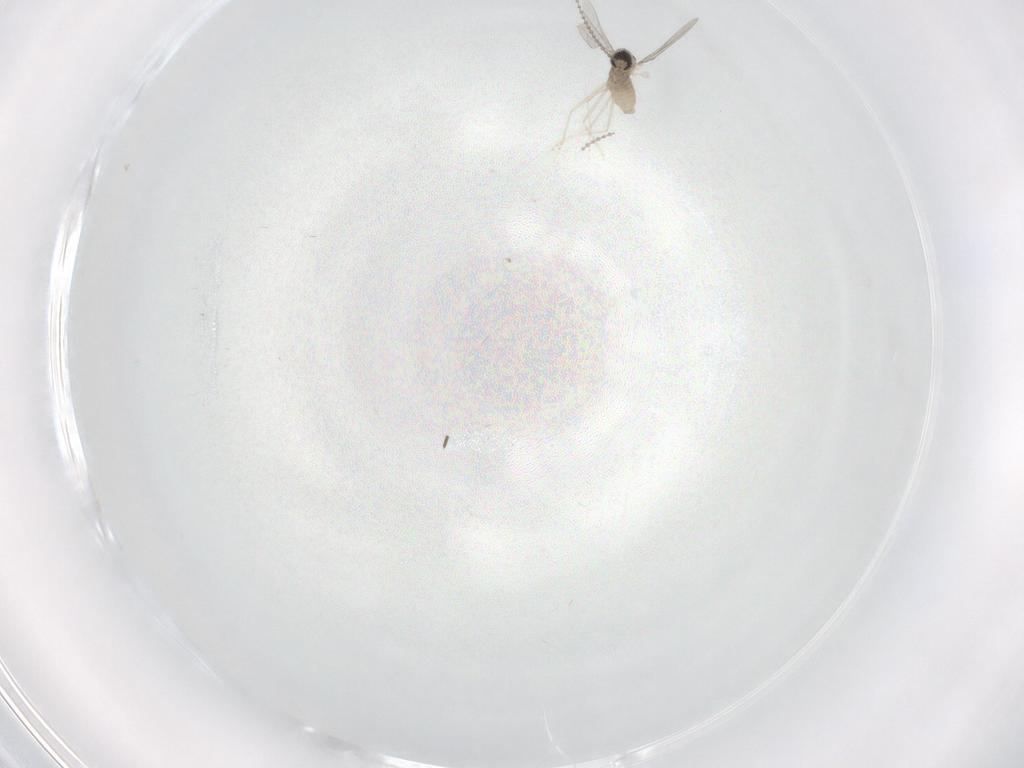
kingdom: Animalia
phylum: Arthropoda
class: Insecta
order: Diptera
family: Cecidomyiidae
